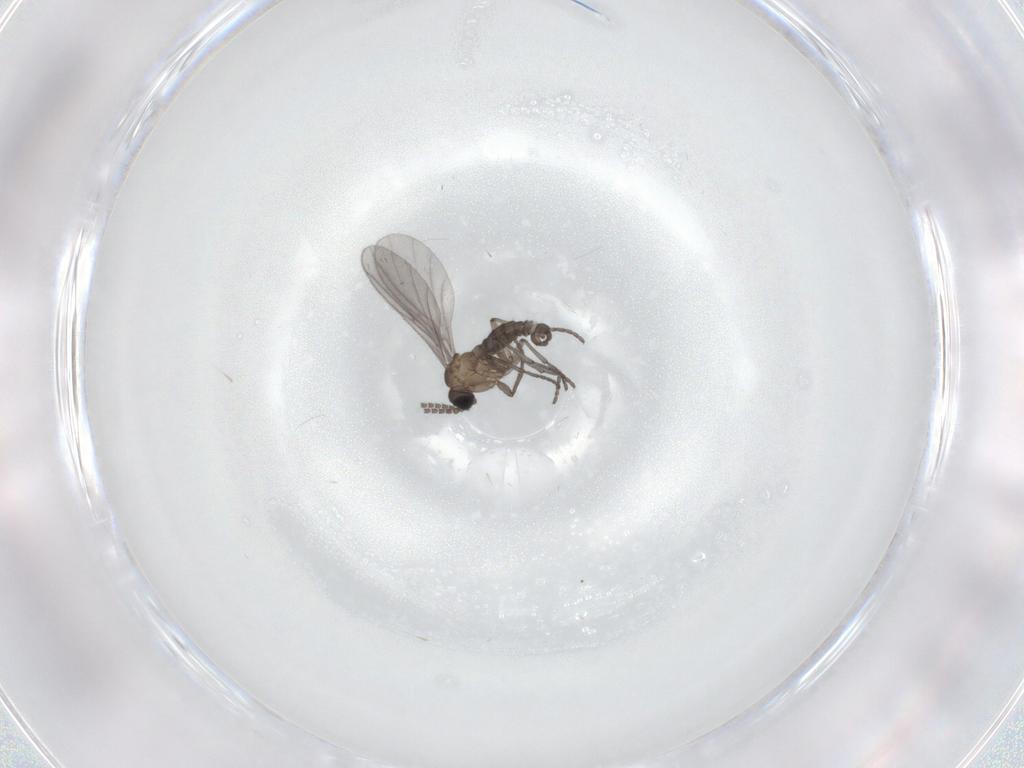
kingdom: Animalia
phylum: Arthropoda
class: Insecta
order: Diptera
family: Sciaridae
